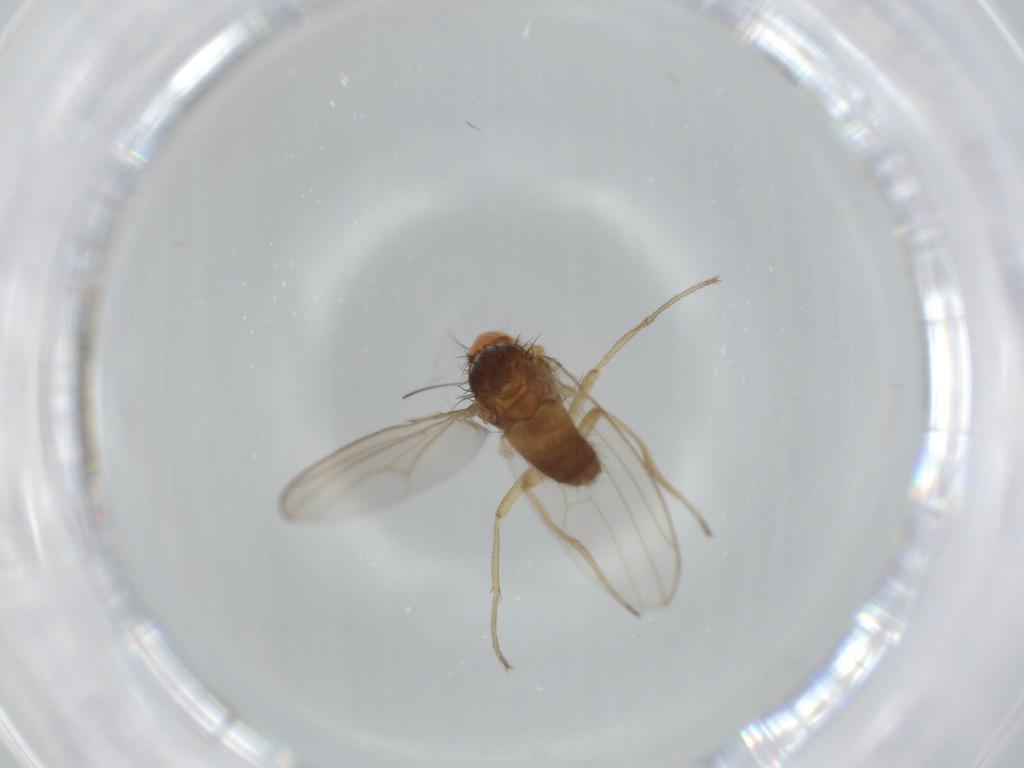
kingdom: Animalia
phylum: Arthropoda
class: Insecta
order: Diptera
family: Drosophilidae
